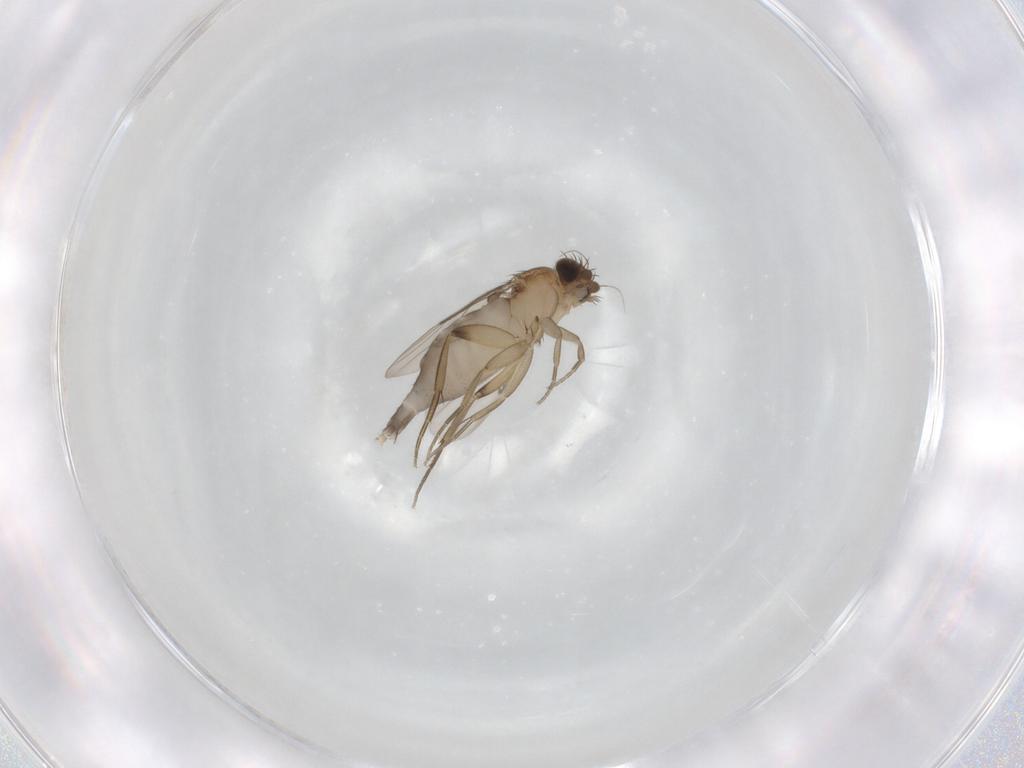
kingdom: Animalia
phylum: Arthropoda
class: Insecta
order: Diptera
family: Phoridae
